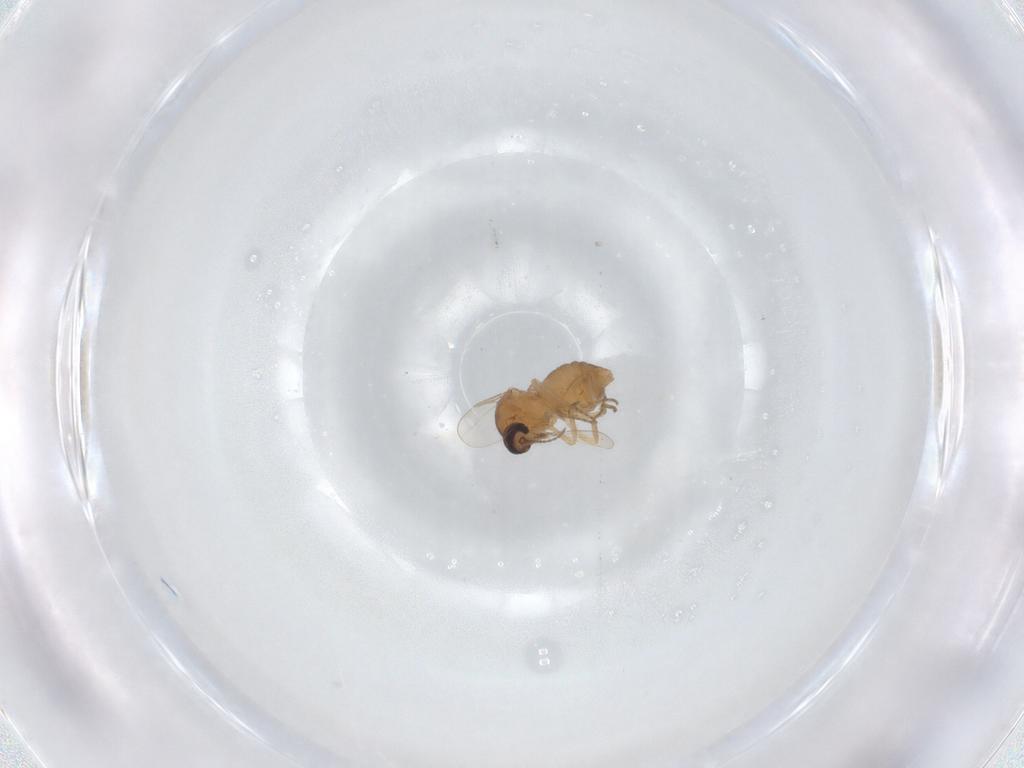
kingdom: Animalia
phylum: Arthropoda
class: Insecta
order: Diptera
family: Ceratopogonidae
